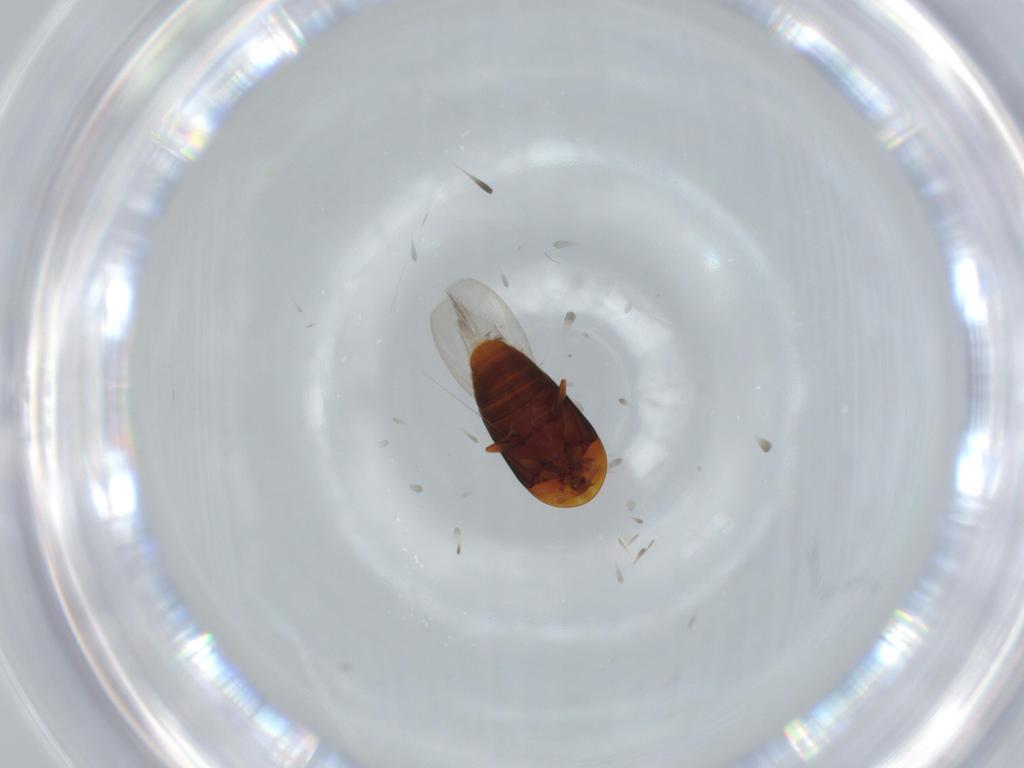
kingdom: Animalia
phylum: Arthropoda
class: Insecta
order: Coleoptera
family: Corylophidae
